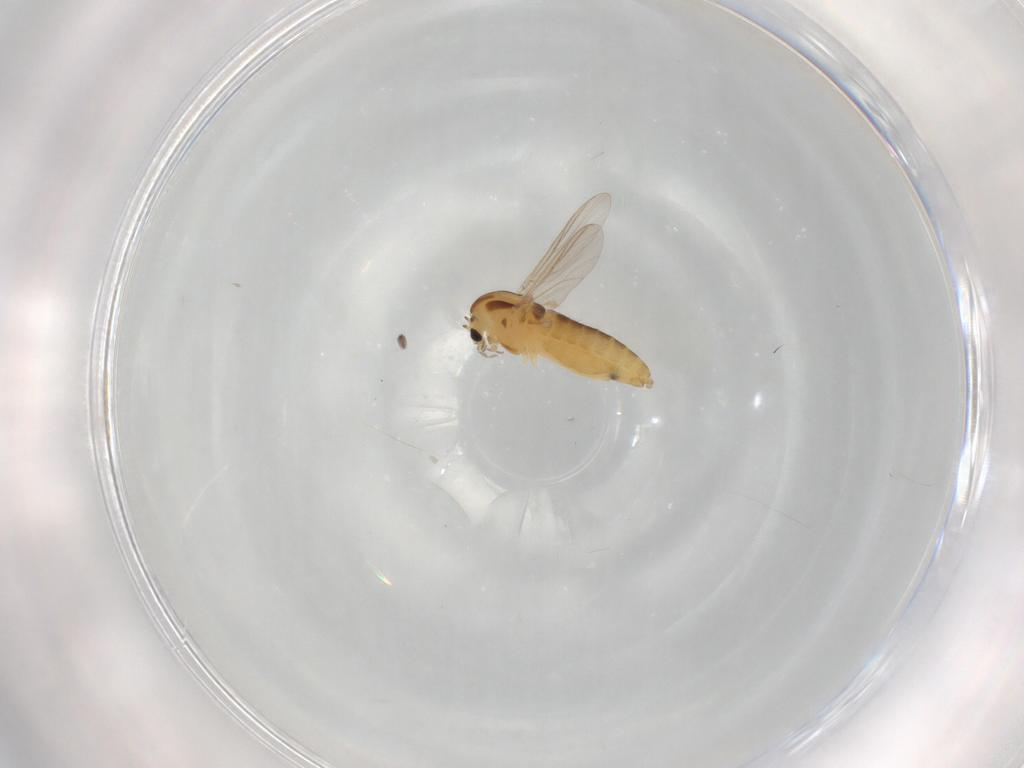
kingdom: Animalia
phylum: Arthropoda
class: Insecta
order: Diptera
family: Chironomidae
